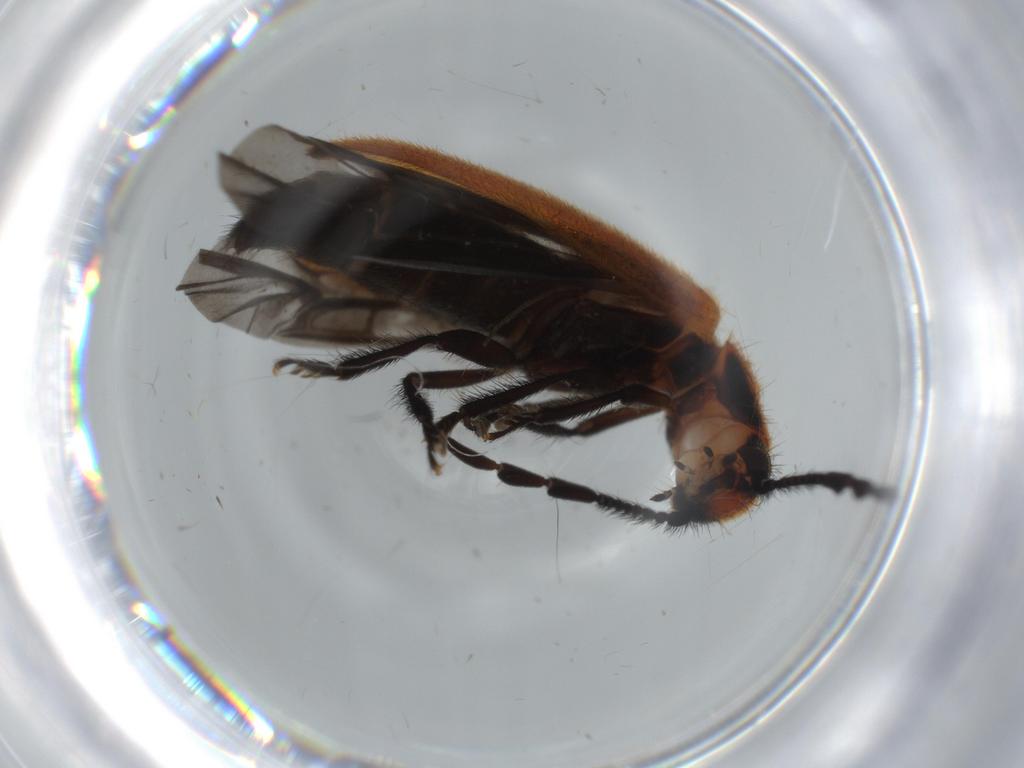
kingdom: Animalia
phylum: Arthropoda
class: Insecta
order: Coleoptera
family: Cleridae
